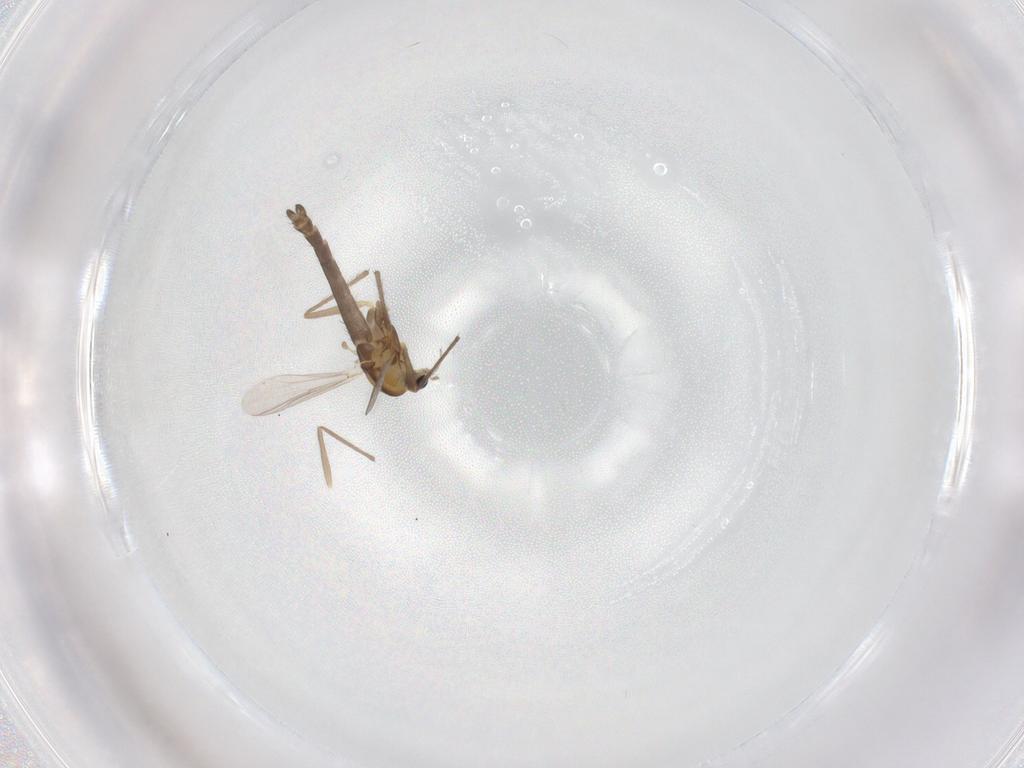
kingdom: Animalia
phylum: Arthropoda
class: Insecta
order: Diptera
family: Chironomidae
